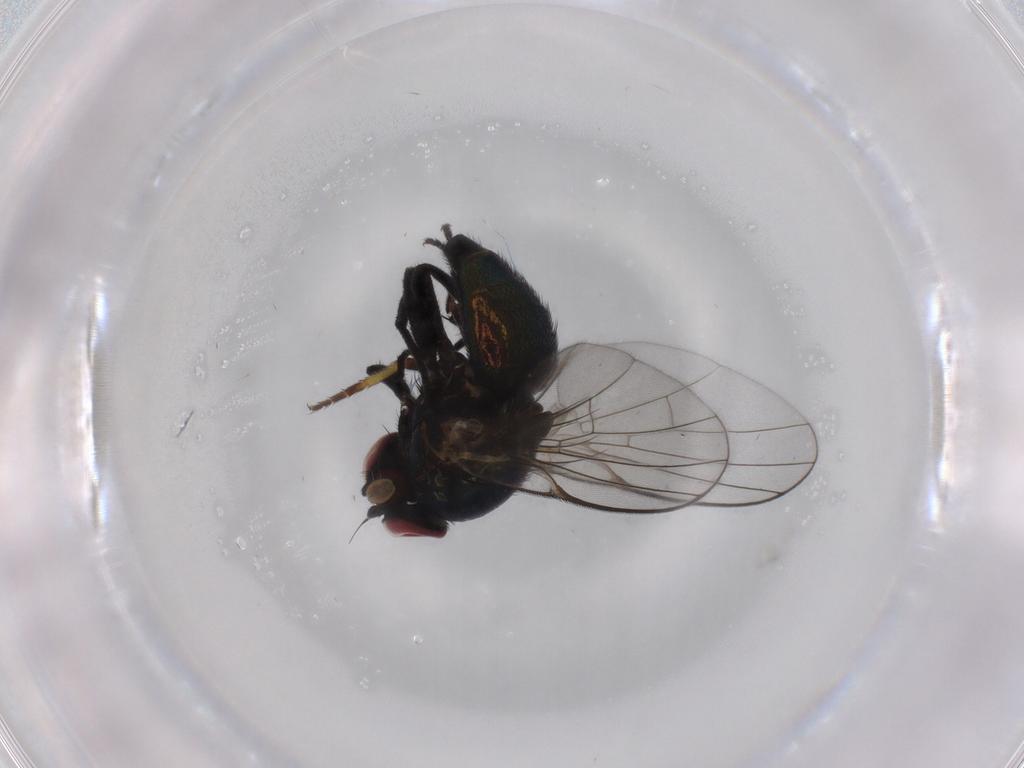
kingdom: Animalia
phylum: Arthropoda
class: Insecta
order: Diptera
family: Agromyzidae
